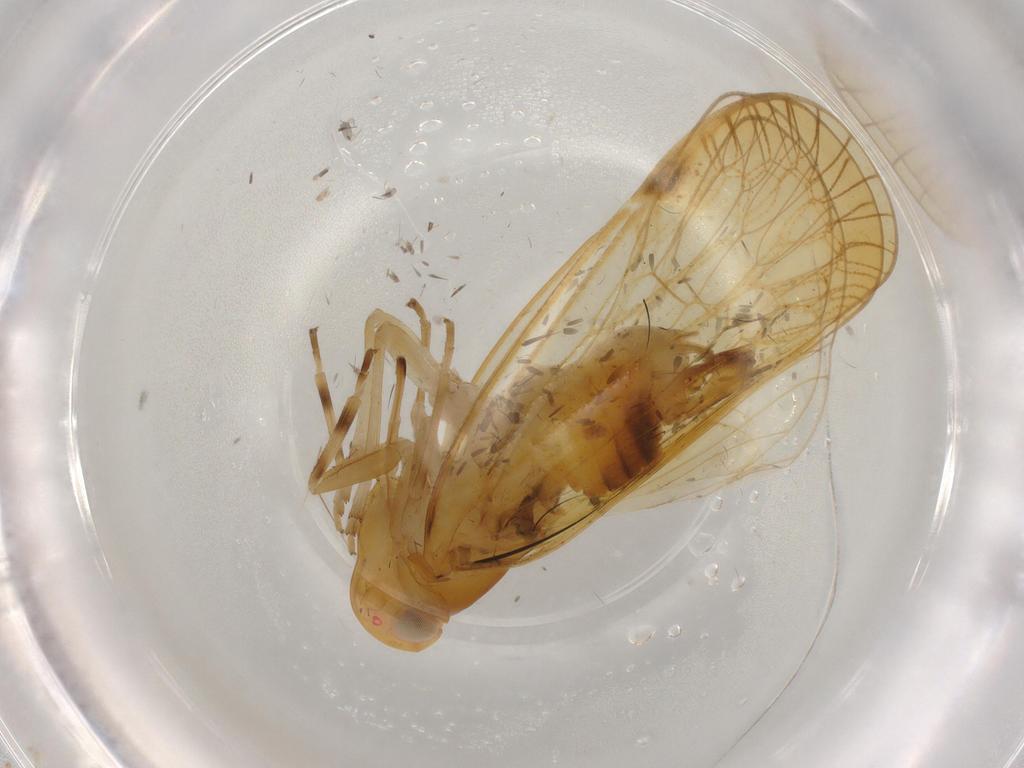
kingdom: Animalia
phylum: Arthropoda
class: Insecta
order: Hemiptera
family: Cixiidae
